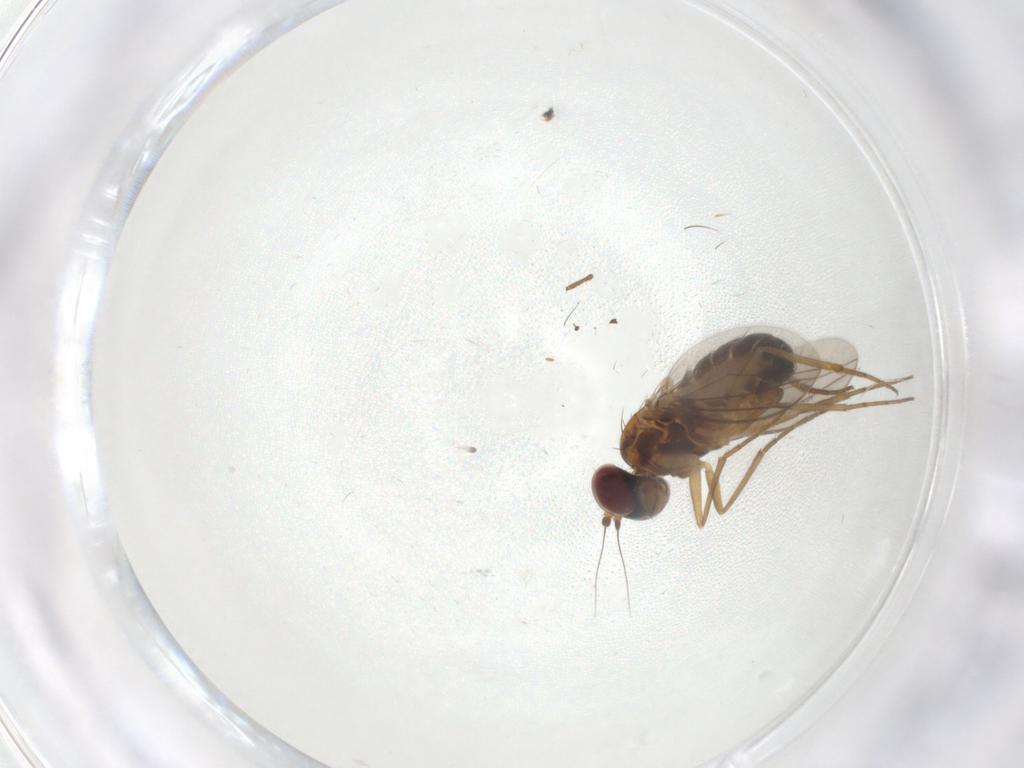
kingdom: Animalia
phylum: Arthropoda
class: Insecta
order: Diptera
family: Dolichopodidae
